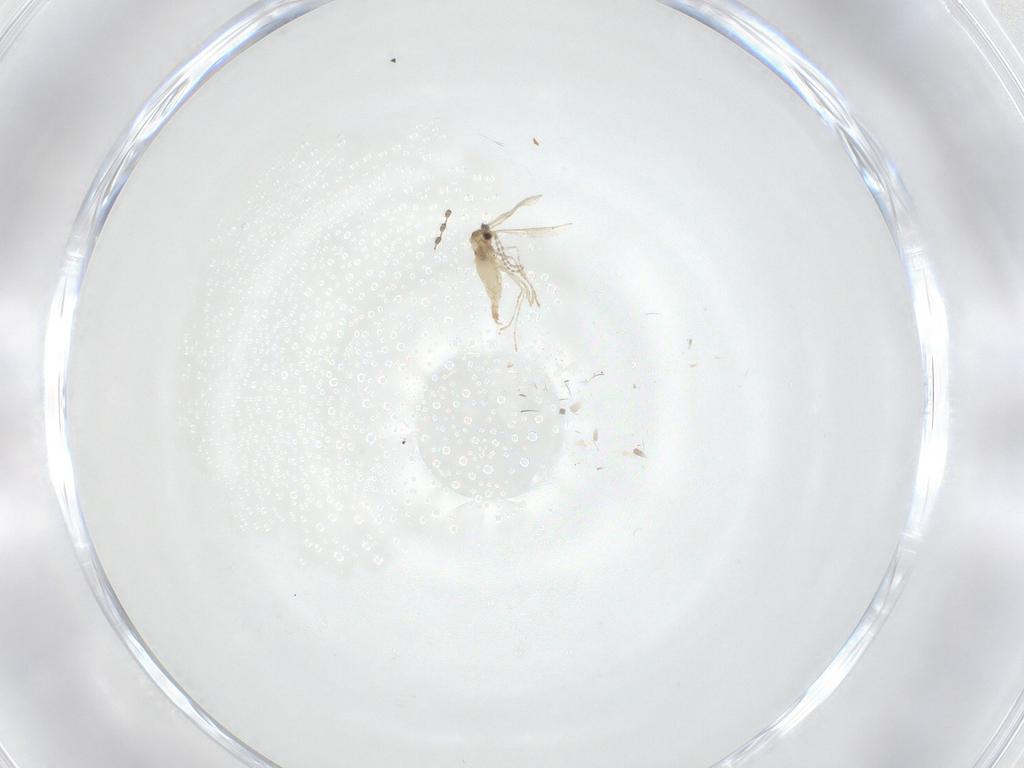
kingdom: Animalia
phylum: Arthropoda
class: Insecta
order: Diptera
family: Cecidomyiidae
